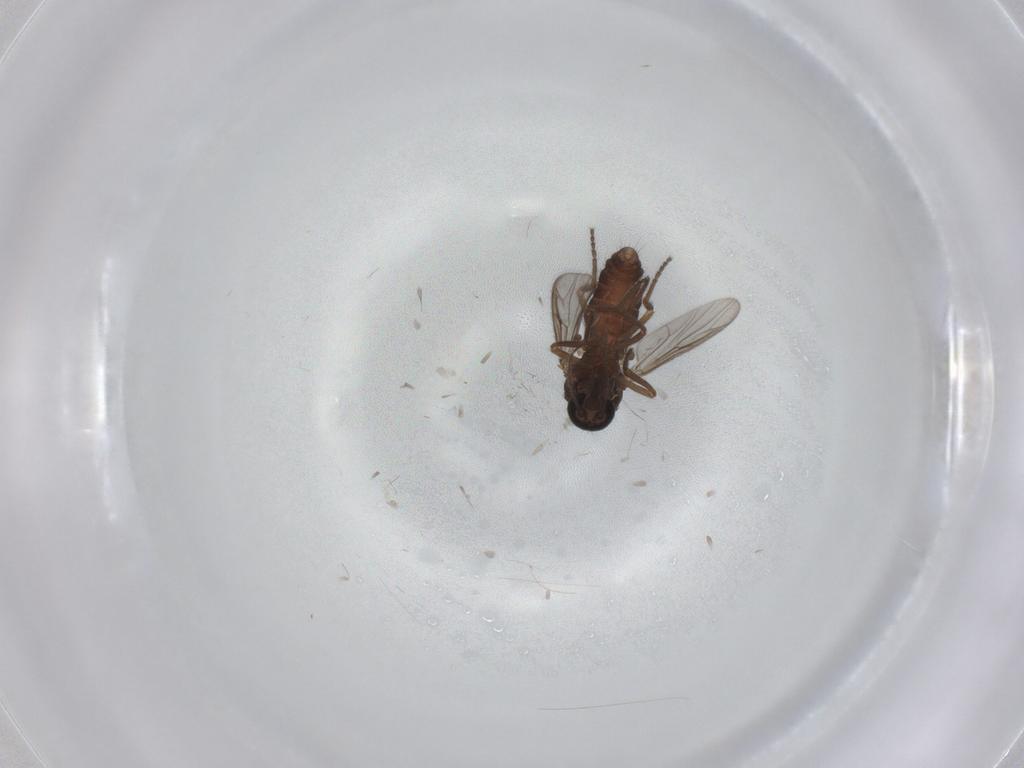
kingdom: Animalia
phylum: Arthropoda
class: Insecta
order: Diptera
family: Ceratopogonidae
